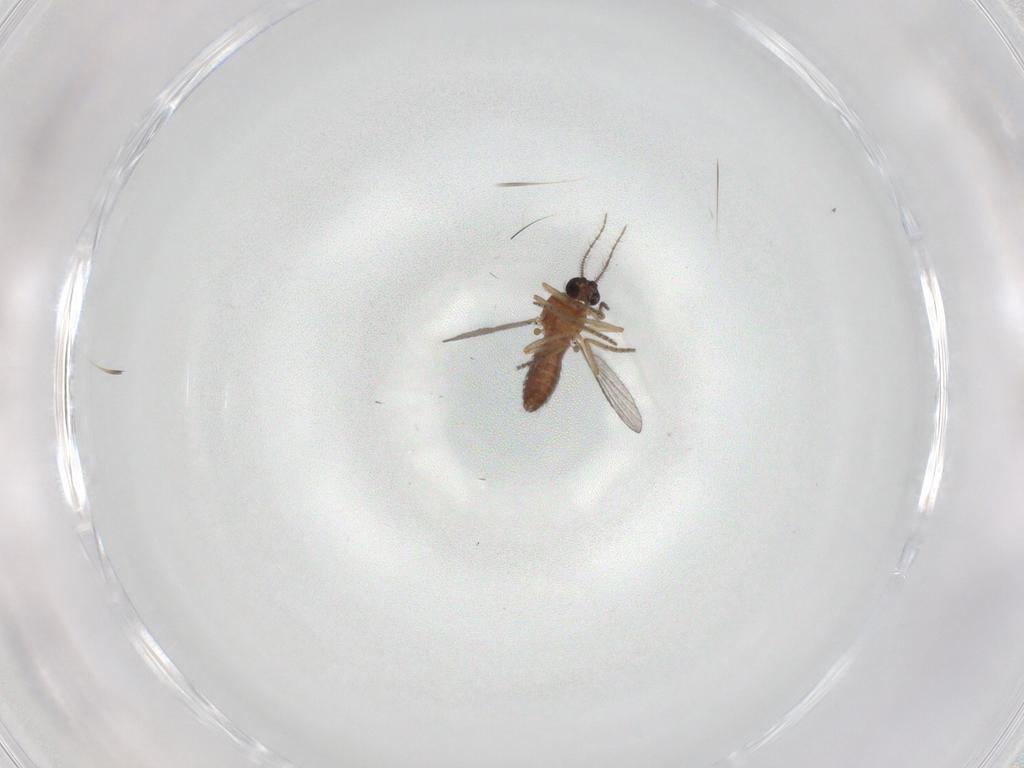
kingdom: Animalia
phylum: Arthropoda
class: Insecta
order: Diptera
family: Ceratopogonidae
